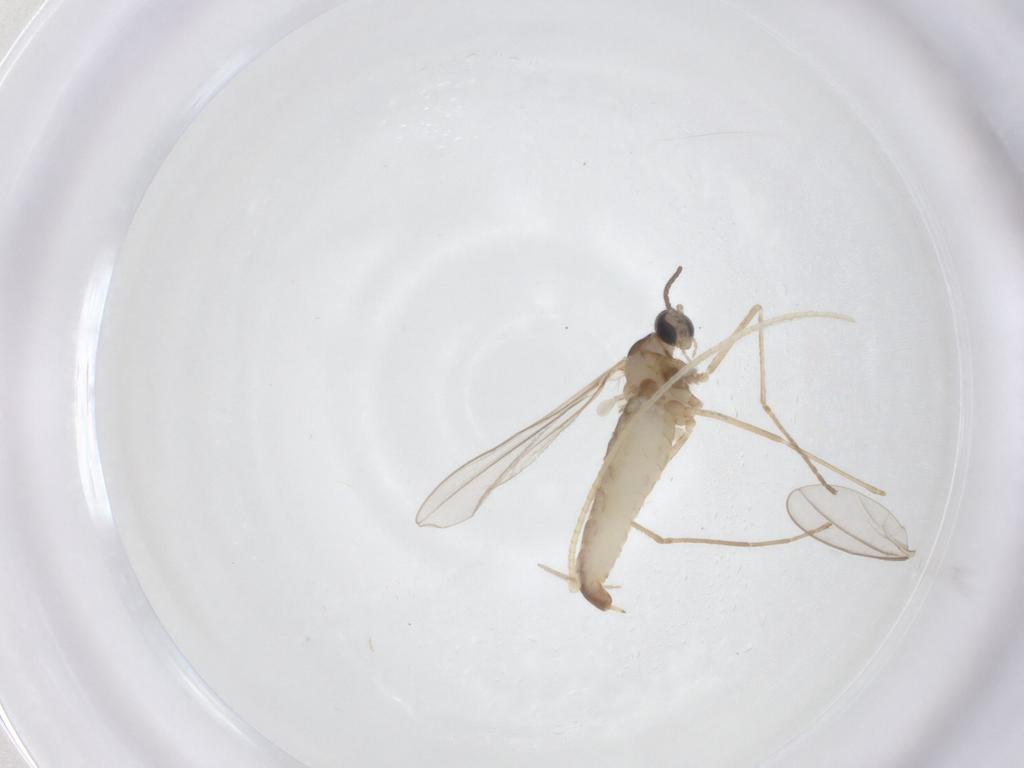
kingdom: Animalia
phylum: Arthropoda
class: Insecta
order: Diptera
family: Cecidomyiidae
